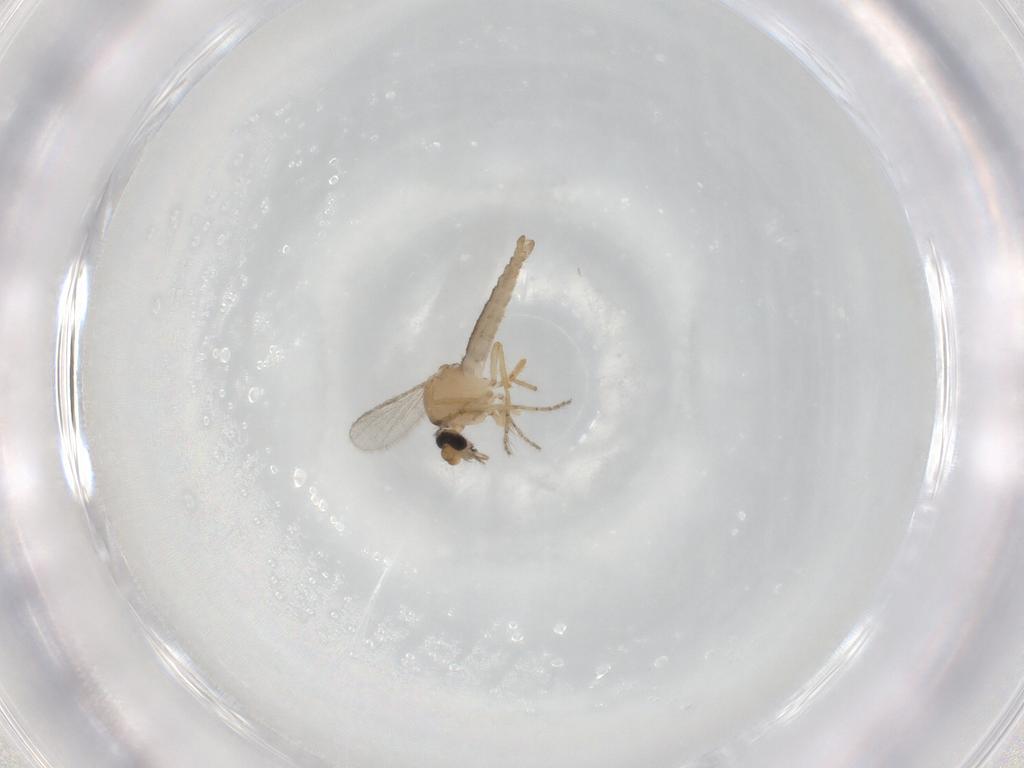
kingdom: Animalia
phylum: Arthropoda
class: Insecta
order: Diptera
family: Ceratopogonidae
